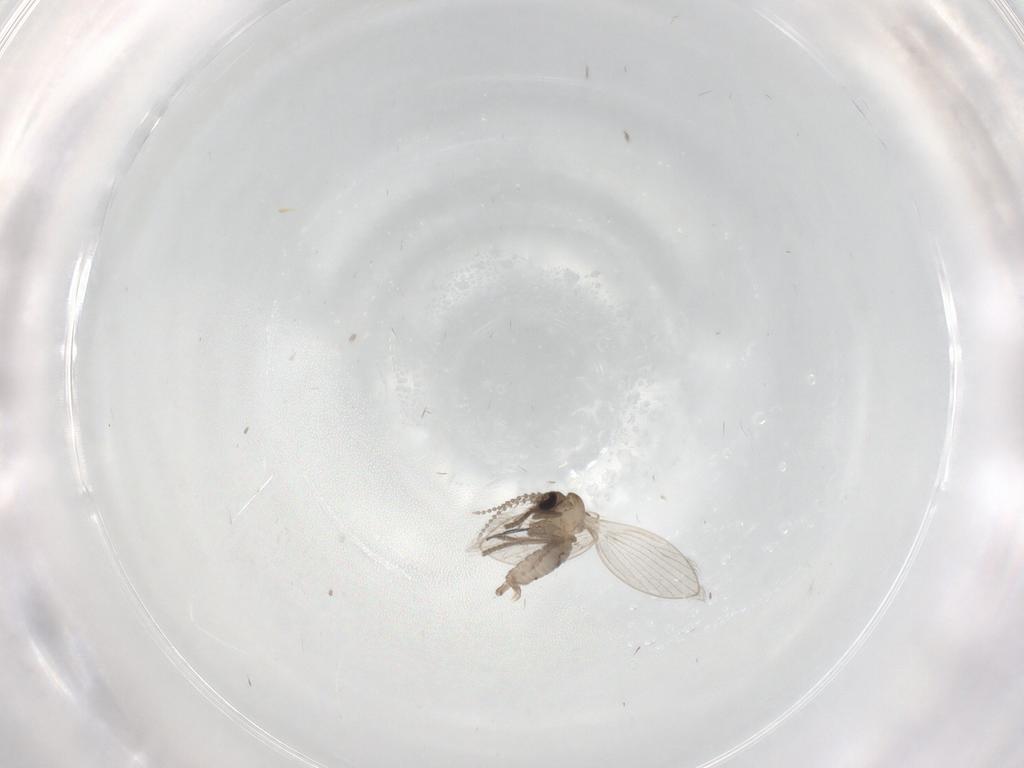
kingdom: Animalia
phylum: Arthropoda
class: Insecta
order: Diptera
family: Psychodidae
